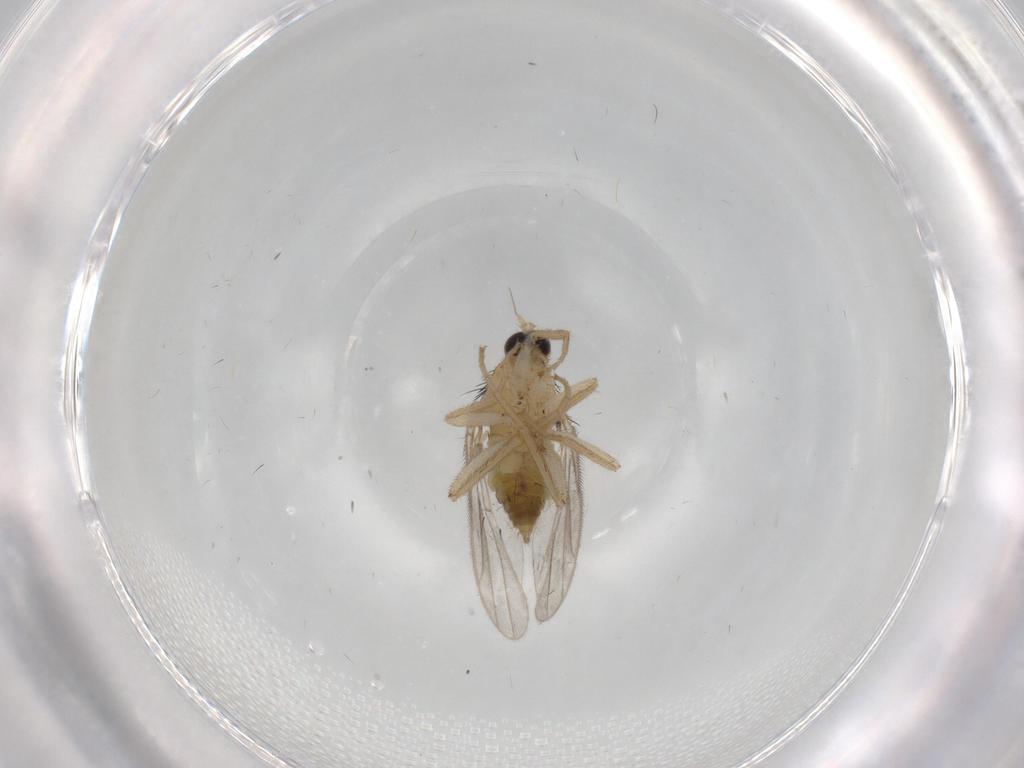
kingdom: Animalia
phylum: Arthropoda
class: Insecta
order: Diptera
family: Hybotidae
